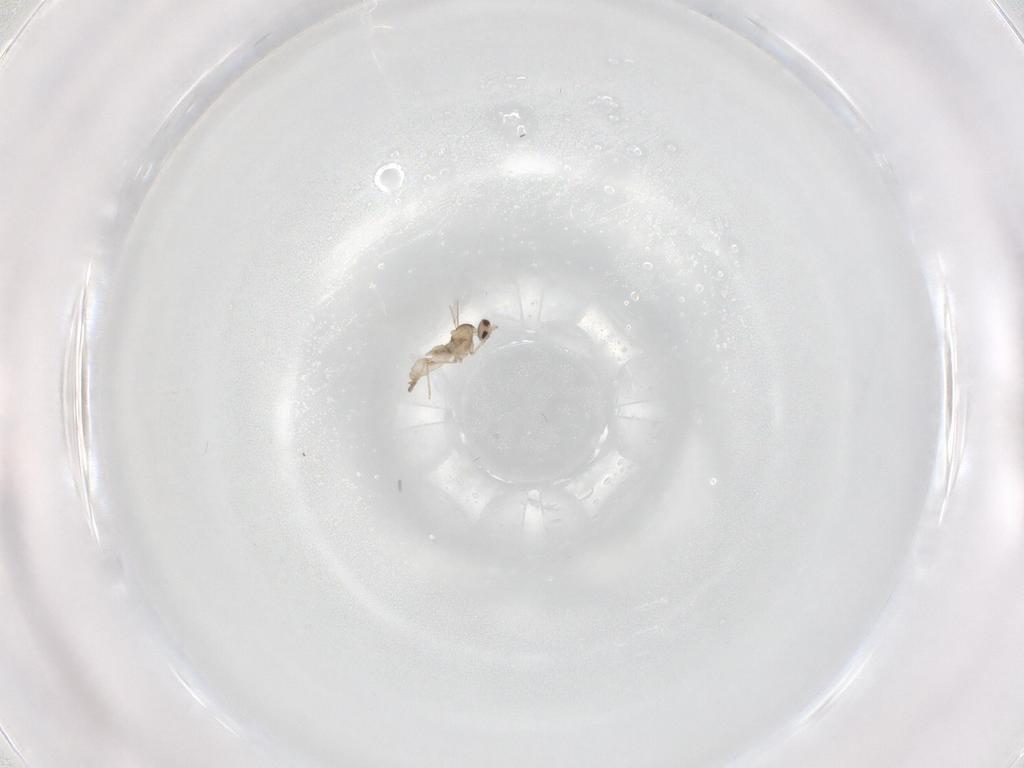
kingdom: Animalia
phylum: Arthropoda
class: Insecta
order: Diptera
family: Cecidomyiidae
